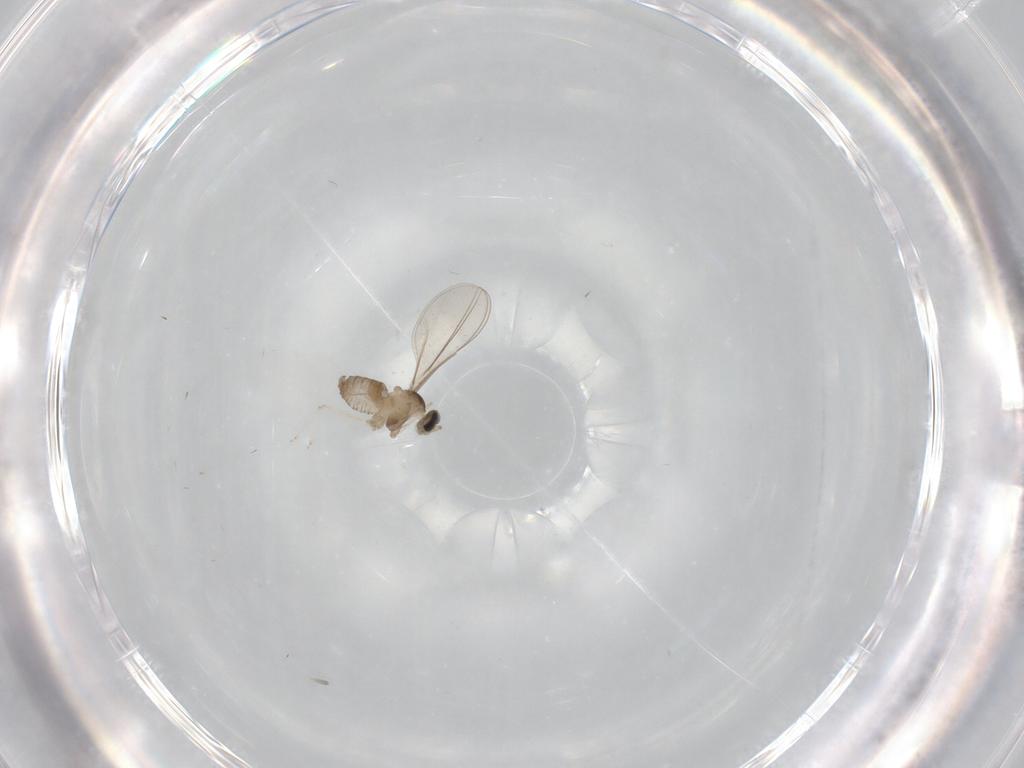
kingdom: Animalia
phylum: Arthropoda
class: Insecta
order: Diptera
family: Cecidomyiidae
